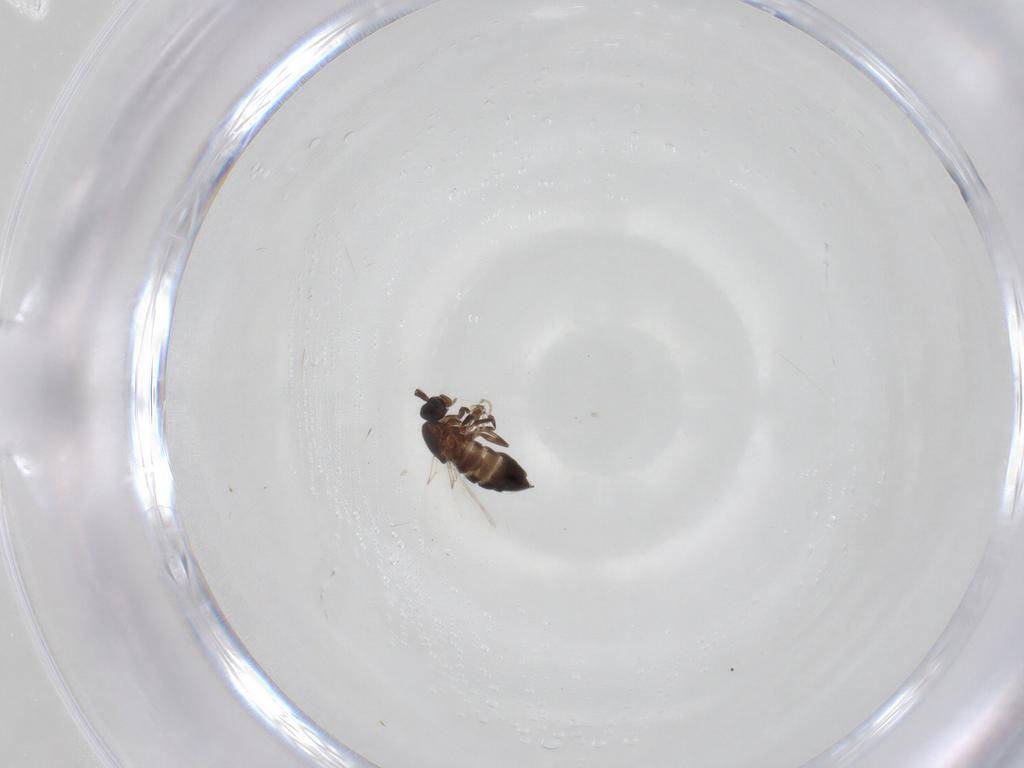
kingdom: Animalia
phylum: Arthropoda
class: Insecta
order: Diptera
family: Scatopsidae
